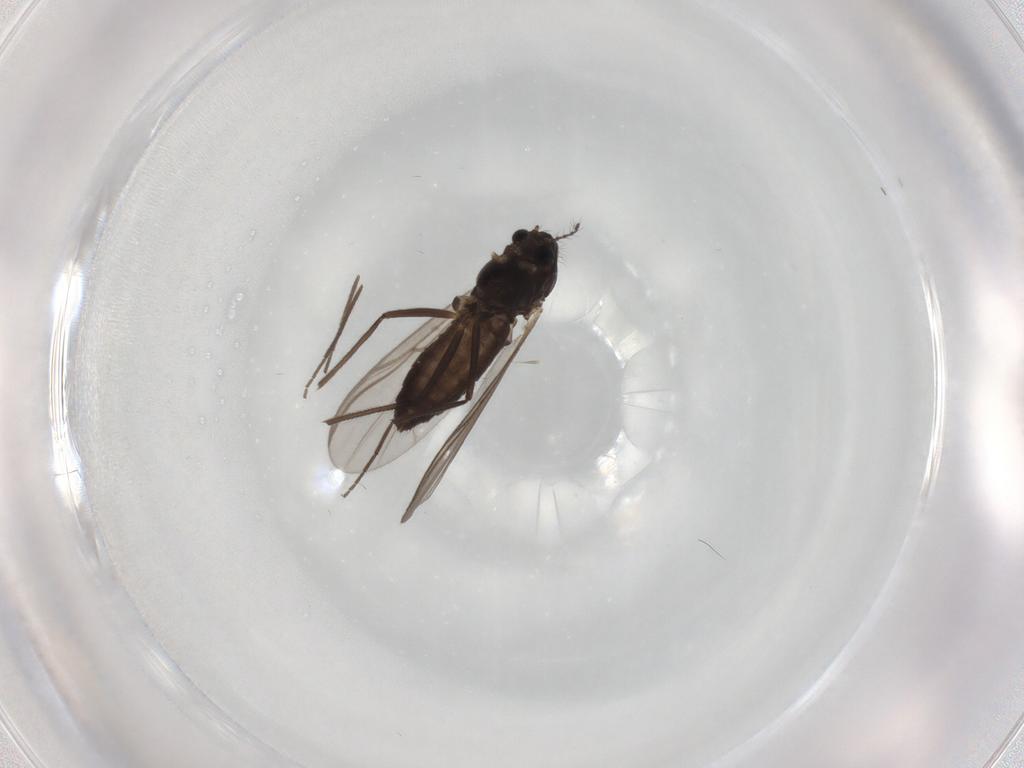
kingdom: Animalia
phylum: Arthropoda
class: Insecta
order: Diptera
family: Chironomidae
